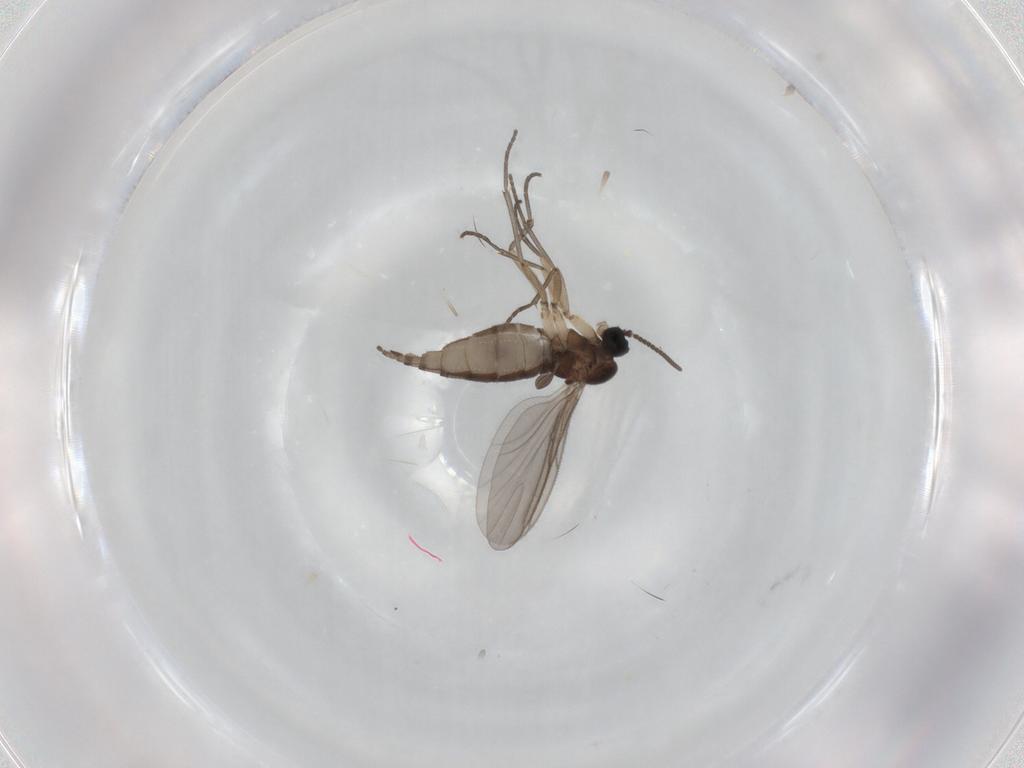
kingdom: Animalia
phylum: Arthropoda
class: Insecta
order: Diptera
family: Sciaridae
